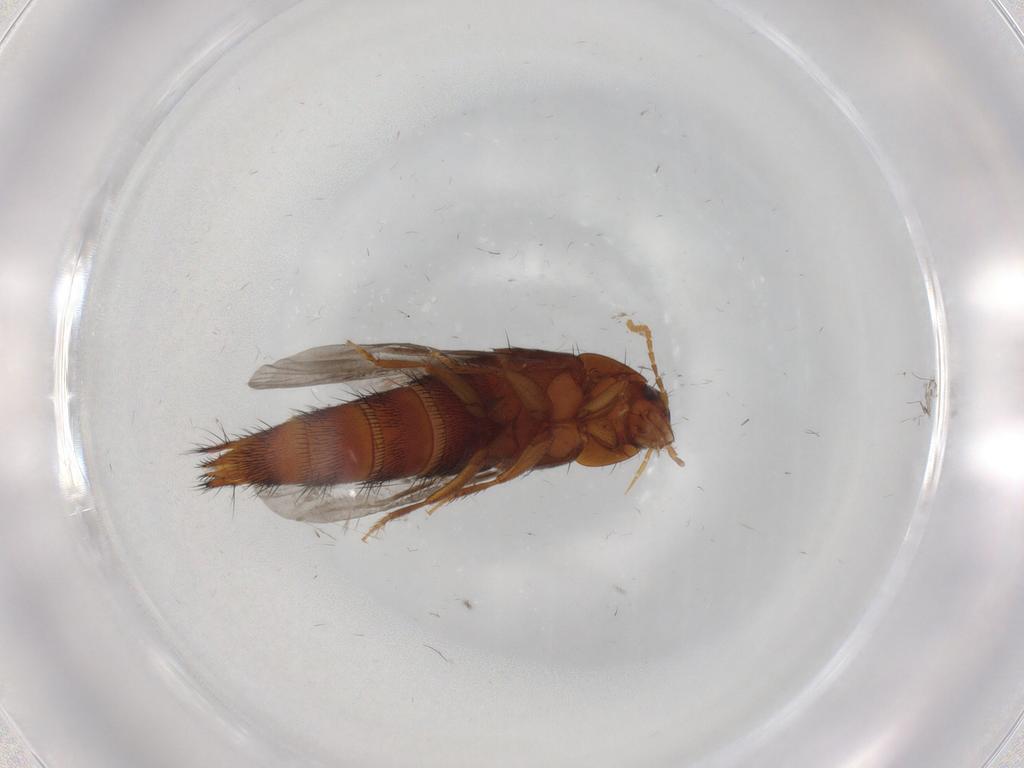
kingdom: Animalia
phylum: Arthropoda
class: Insecta
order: Coleoptera
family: Staphylinidae
